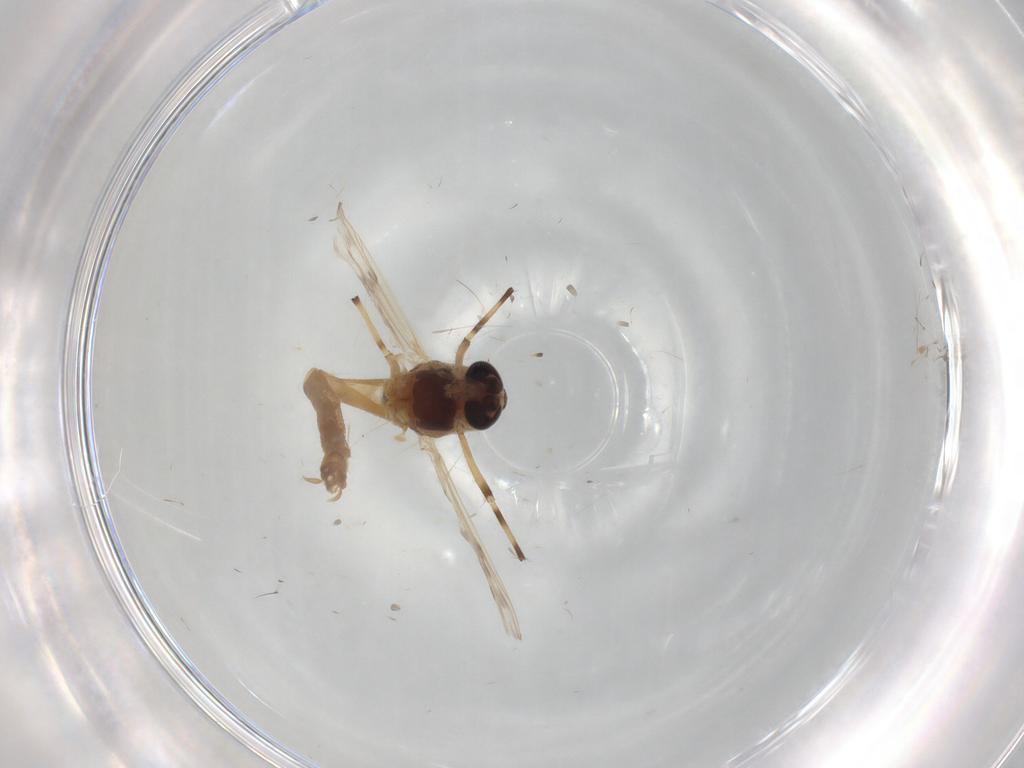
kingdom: Animalia
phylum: Arthropoda
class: Insecta
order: Diptera
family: Chironomidae
